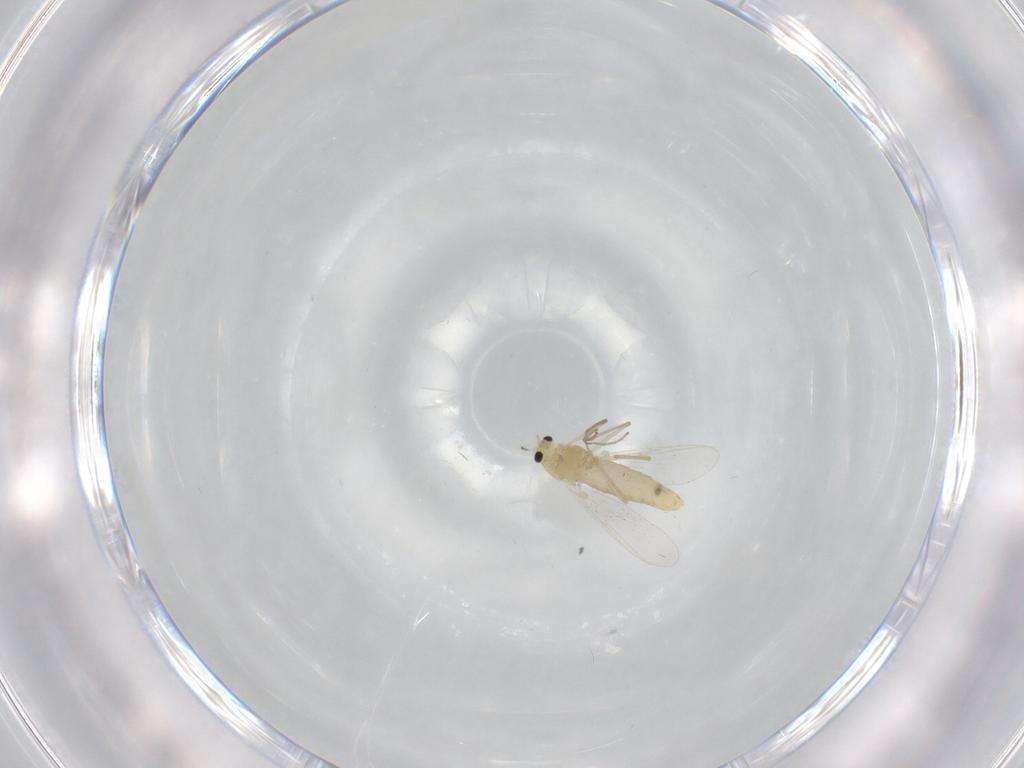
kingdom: Animalia
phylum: Arthropoda
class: Insecta
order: Diptera
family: Chironomidae
